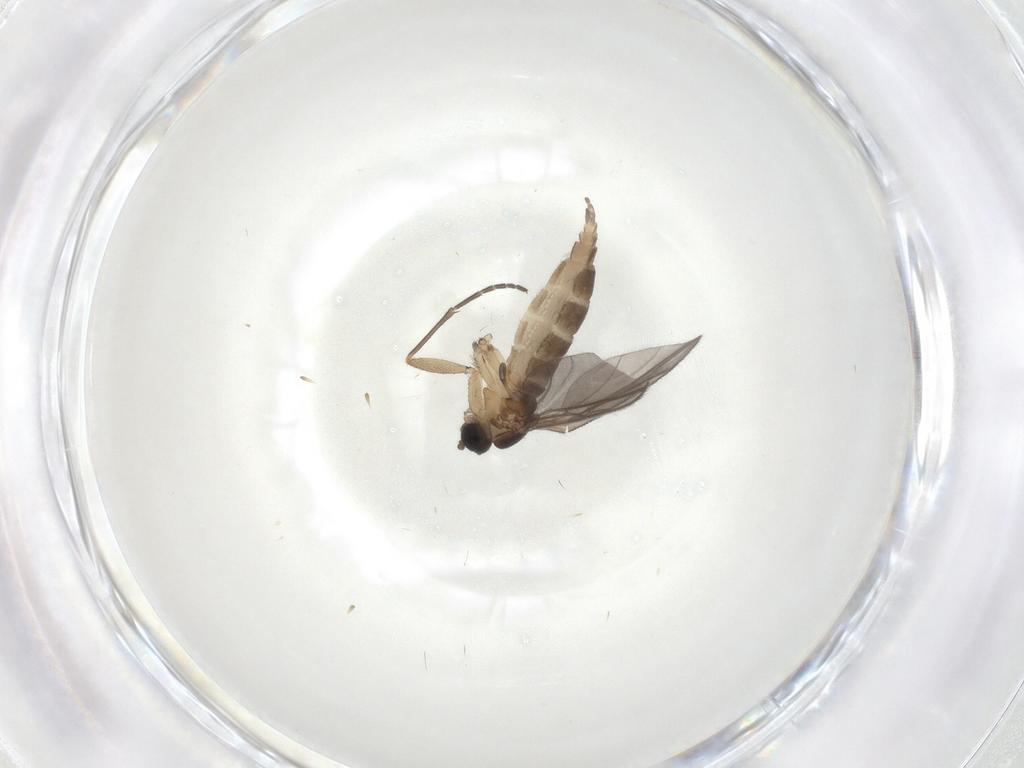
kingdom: Animalia
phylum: Arthropoda
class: Insecta
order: Diptera
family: Sciaridae
